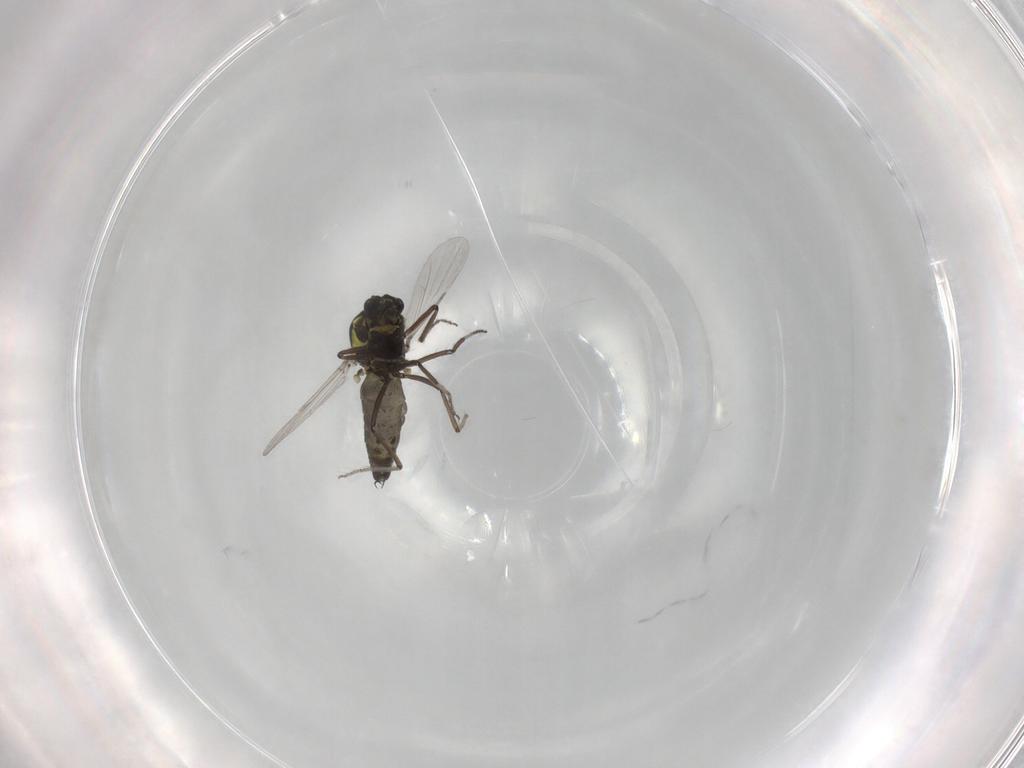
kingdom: Animalia
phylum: Arthropoda
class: Insecta
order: Diptera
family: Ceratopogonidae
